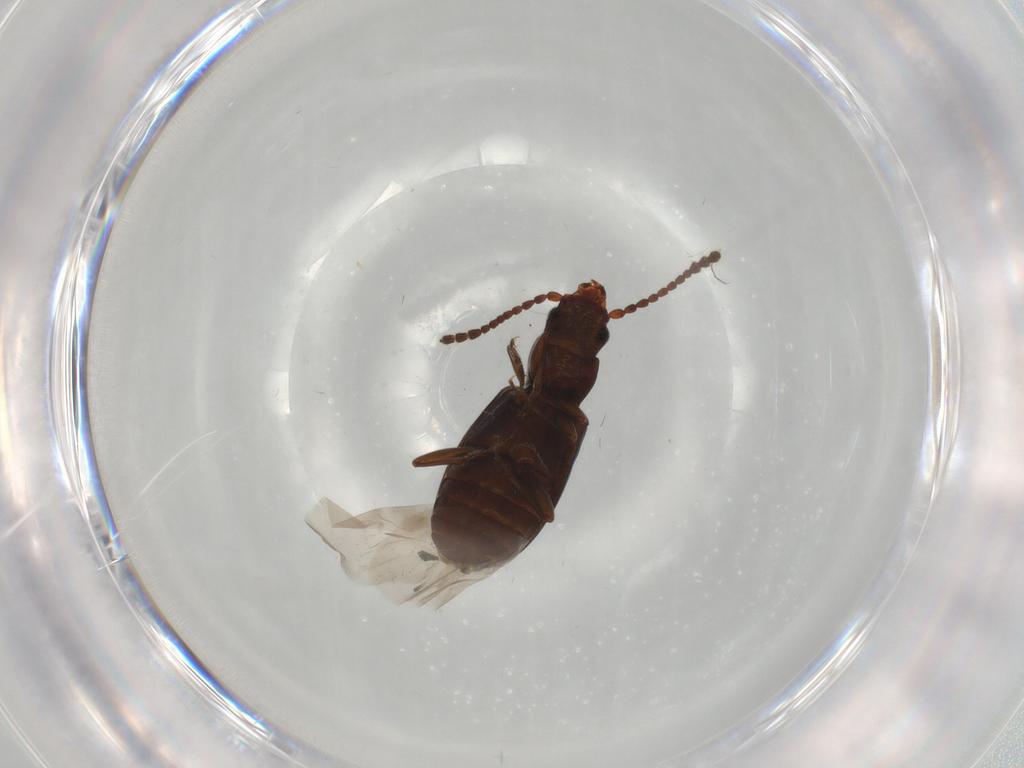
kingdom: Animalia
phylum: Arthropoda
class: Insecta
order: Coleoptera
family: Laemophloeidae
